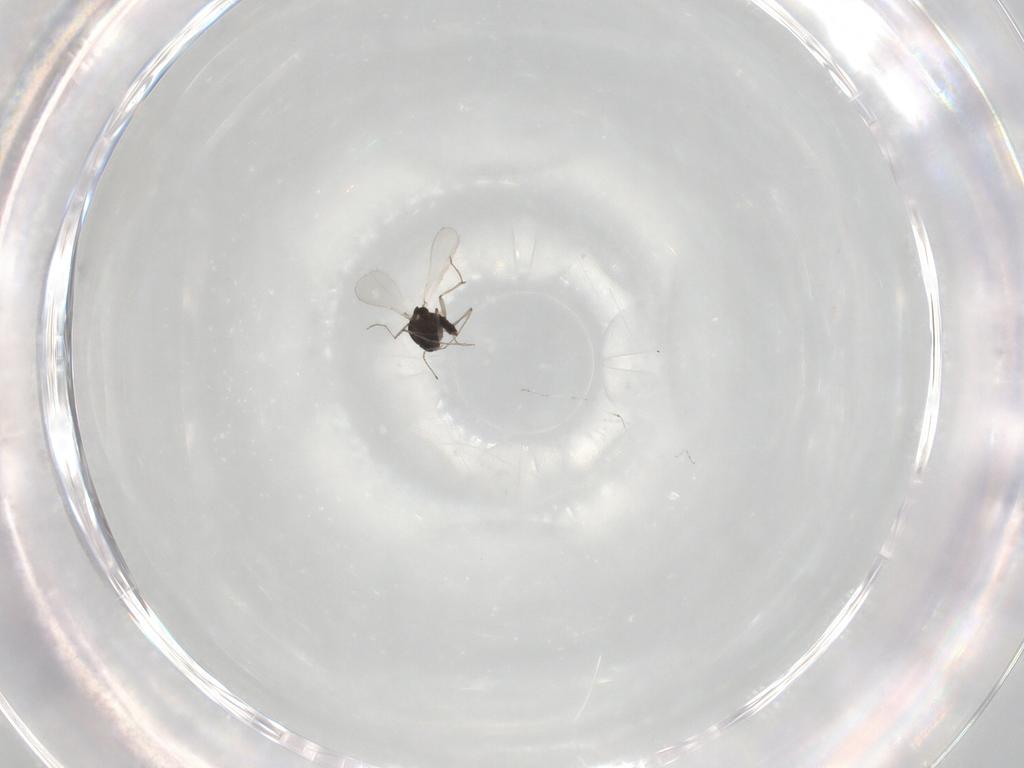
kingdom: Animalia
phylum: Arthropoda
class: Insecta
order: Diptera
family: Chironomidae
